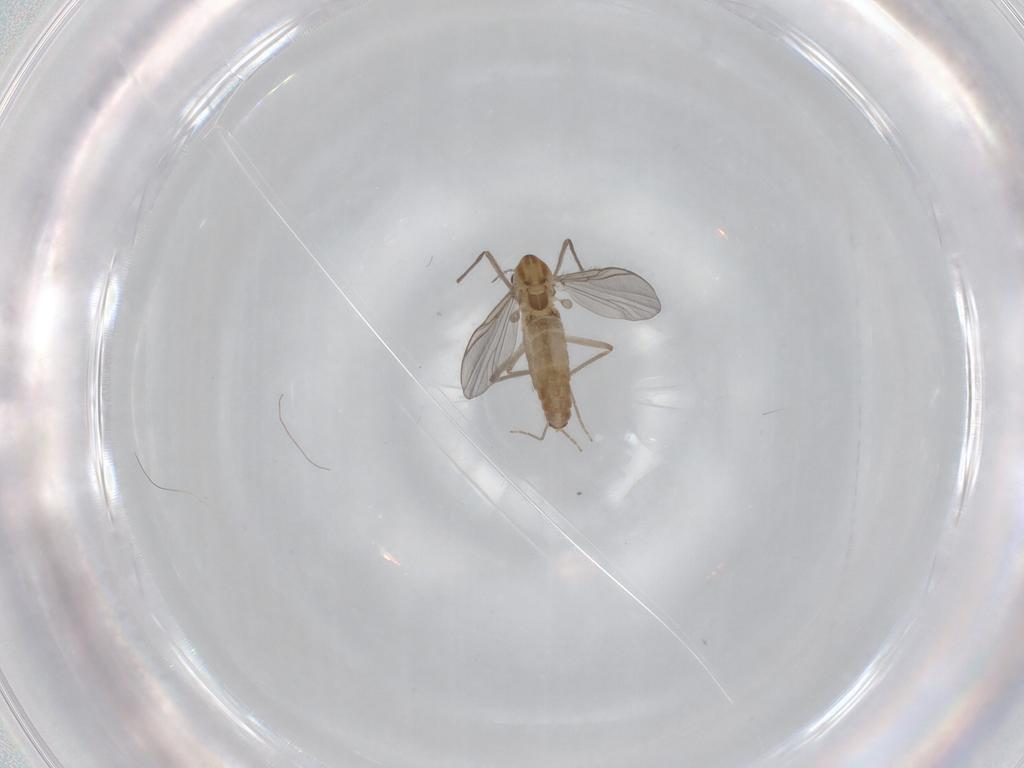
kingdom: Animalia
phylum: Arthropoda
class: Insecta
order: Diptera
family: Chironomidae
